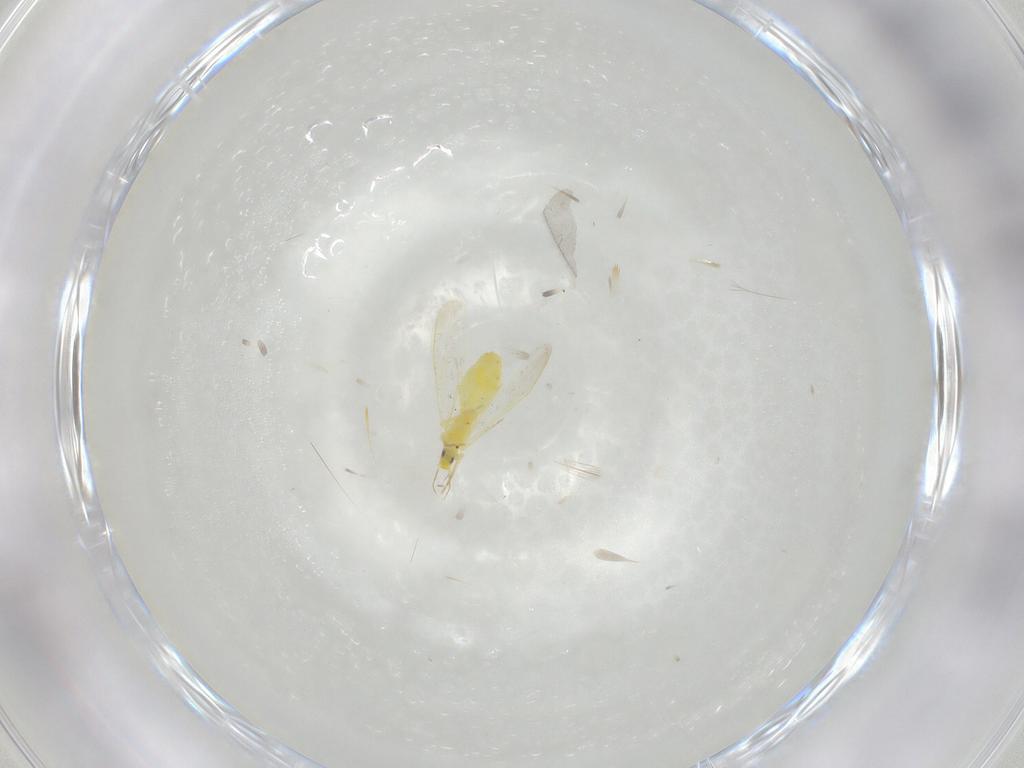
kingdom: Animalia
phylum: Arthropoda
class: Insecta
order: Hemiptera
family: Aleyrodidae
